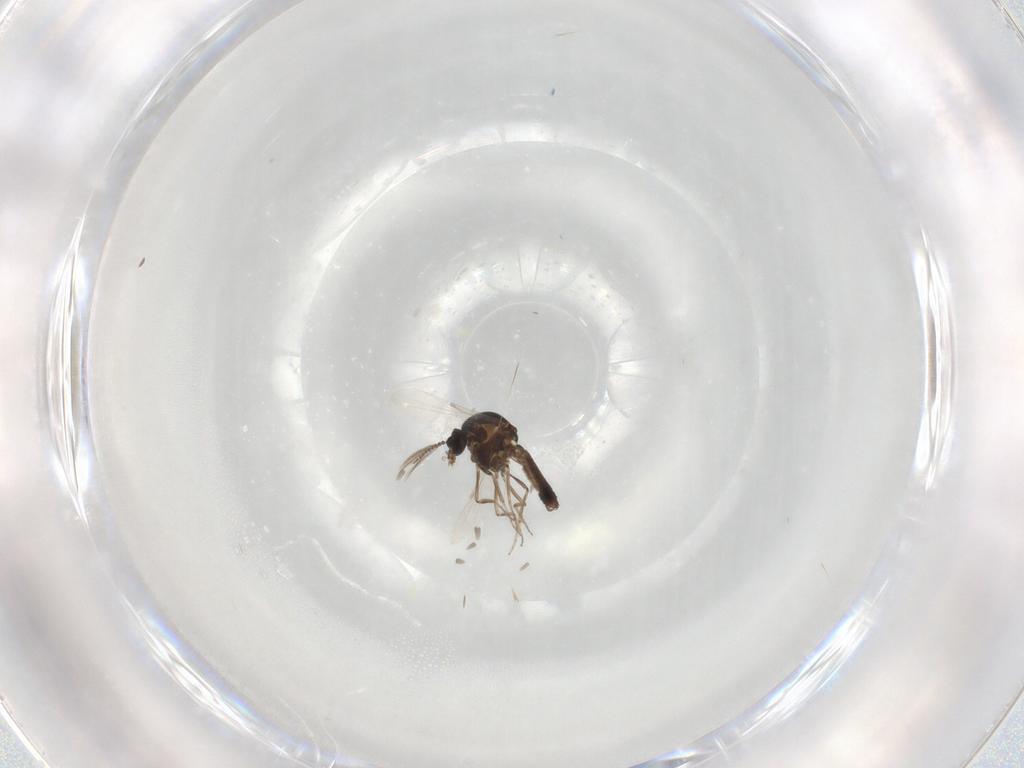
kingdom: Animalia
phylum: Arthropoda
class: Insecta
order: Diptera
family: Ceratopogonidae
